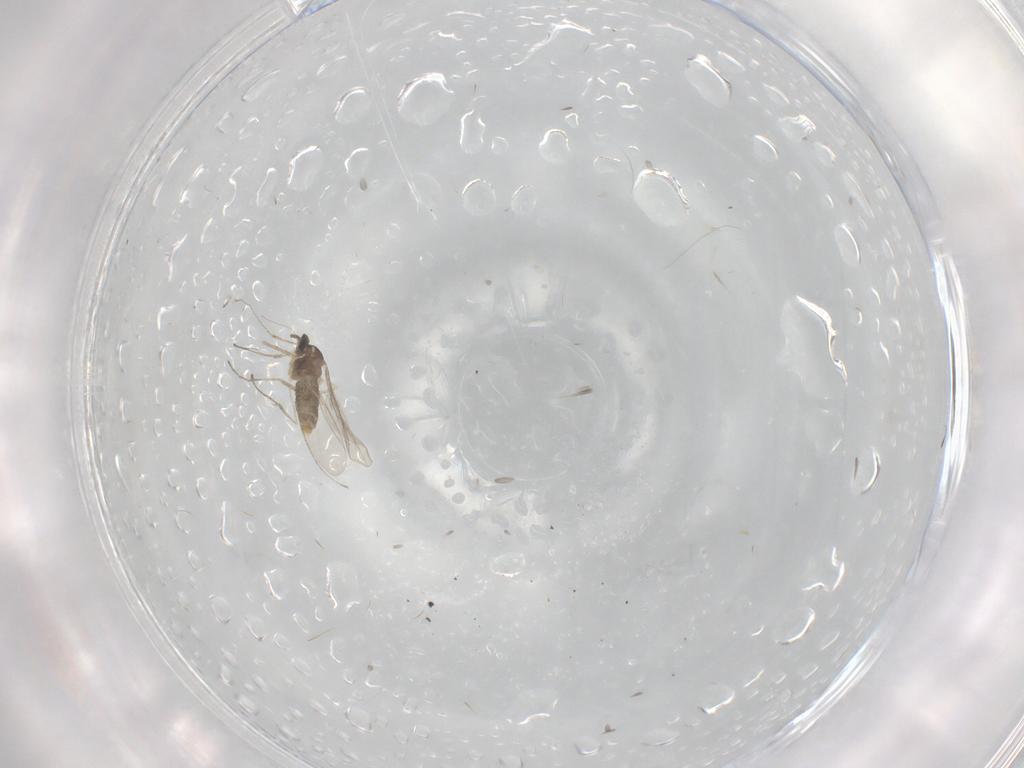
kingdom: Animalia
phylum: Arthropoda
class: Insecta
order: Diptera
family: Cecidomyiidae
